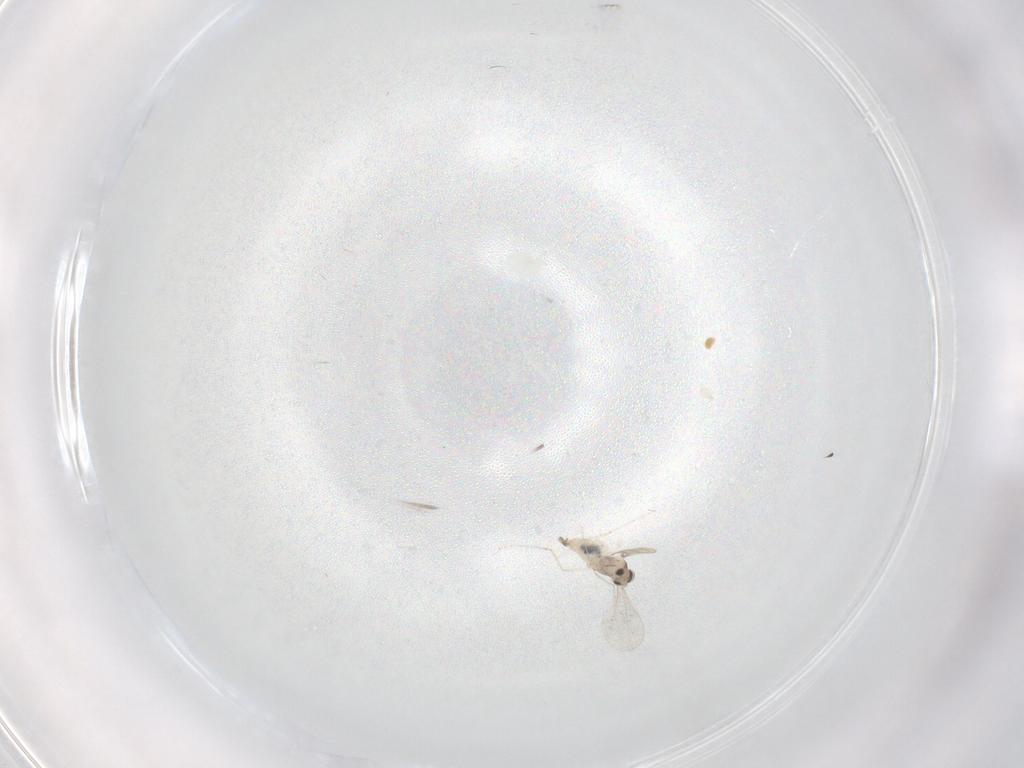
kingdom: Animalia
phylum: Arthropoda
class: Insecta
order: Diptera
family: Cecidomyiidae
